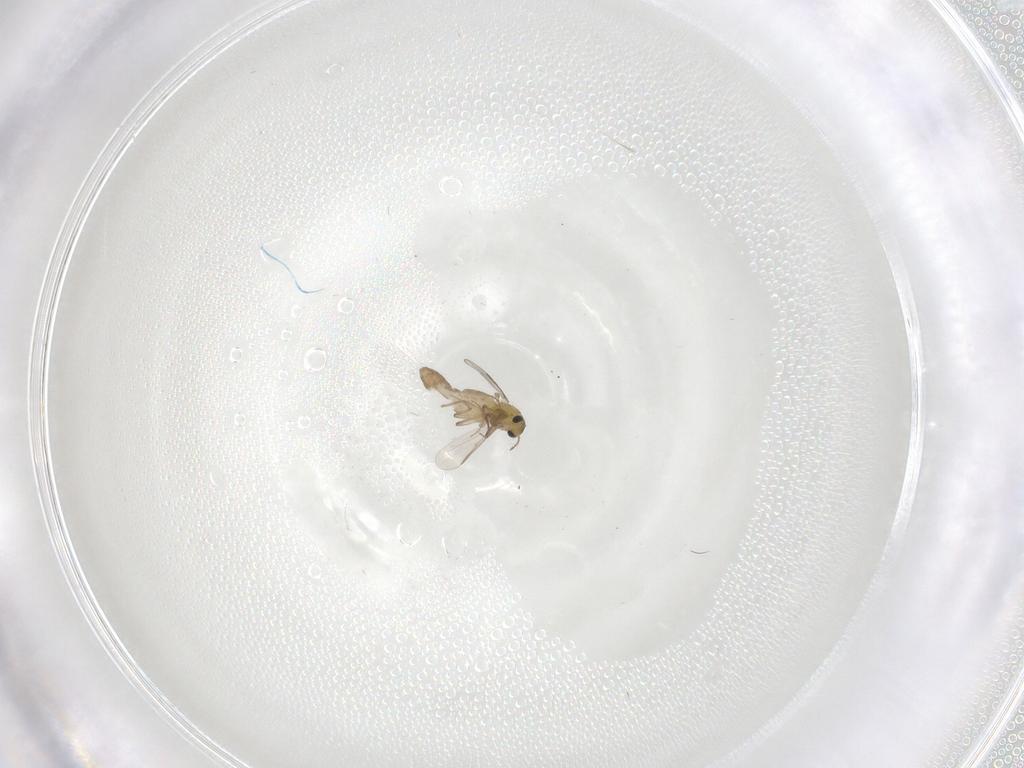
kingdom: Animalia
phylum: Arthropoda
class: Insecta
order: Diptera
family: Chironomidae
